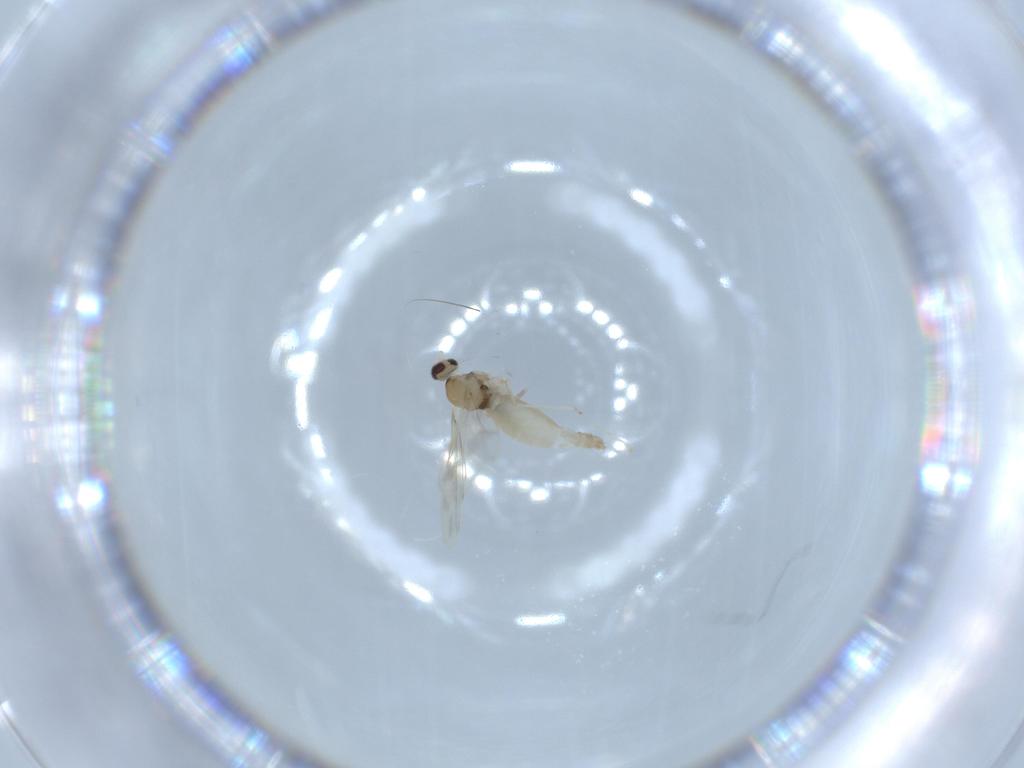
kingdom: Animalia
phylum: Arthropoda
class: Insecta
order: Diptera
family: Cecidomyiidae
